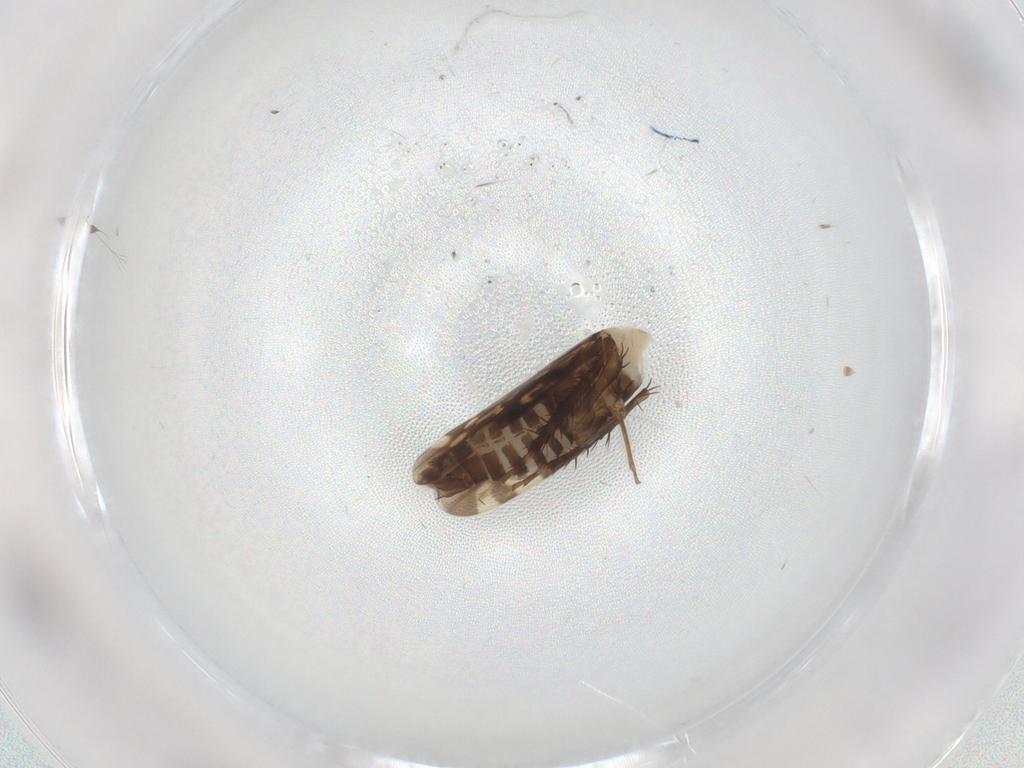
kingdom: Animalia
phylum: Arthropoda
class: Insecta
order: Hemiptera
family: Cicadellidae
